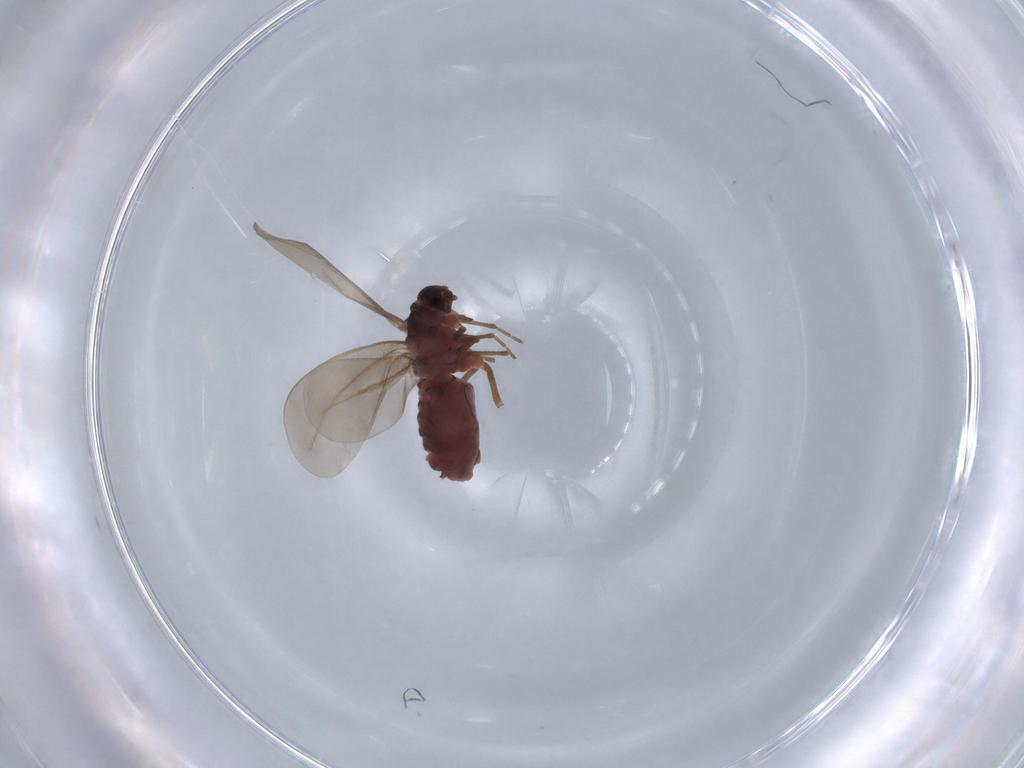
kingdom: Animalia
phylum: Arthropoda
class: Insecta
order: Hemiptera
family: Aleyrodidae
